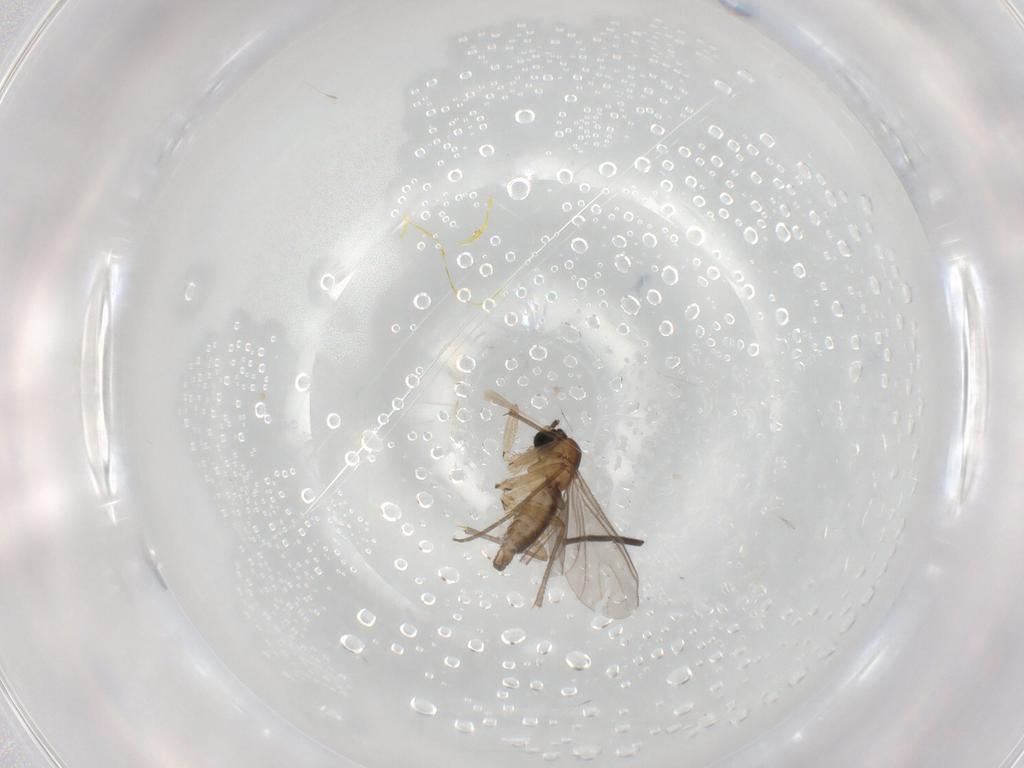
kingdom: Animalia
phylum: Arthropoda
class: Insecta
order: Diptera
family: Sciaridae
